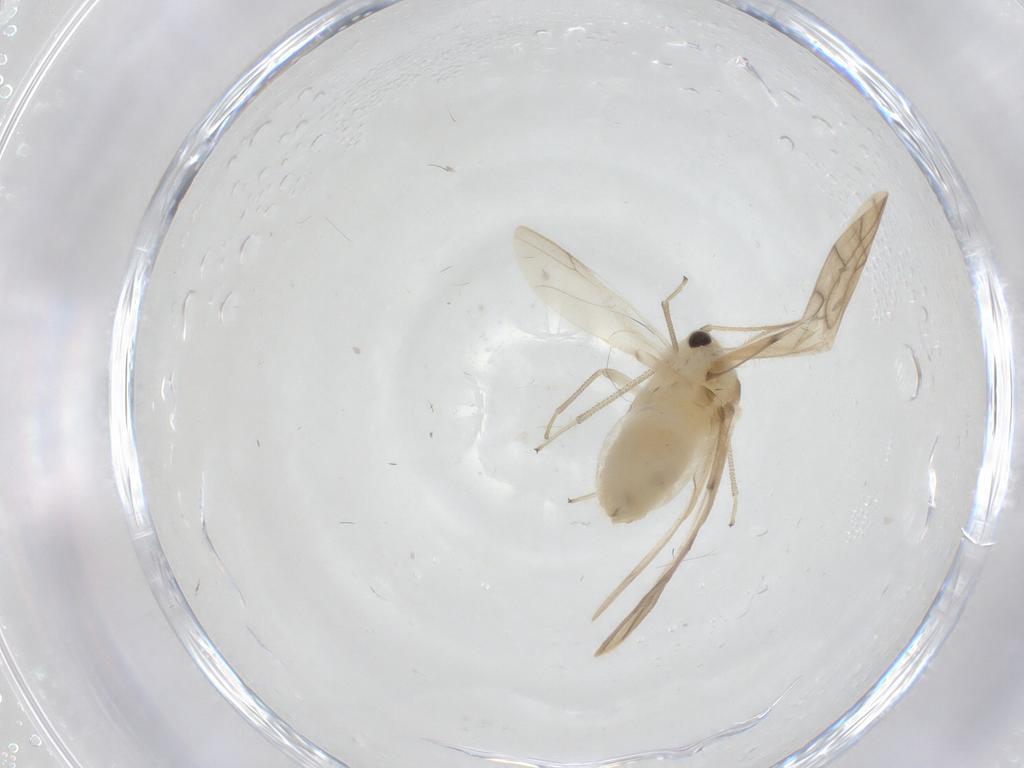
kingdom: Animalia
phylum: Arthropoda
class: Insecta
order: Psocodea
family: Caeciliusidae
